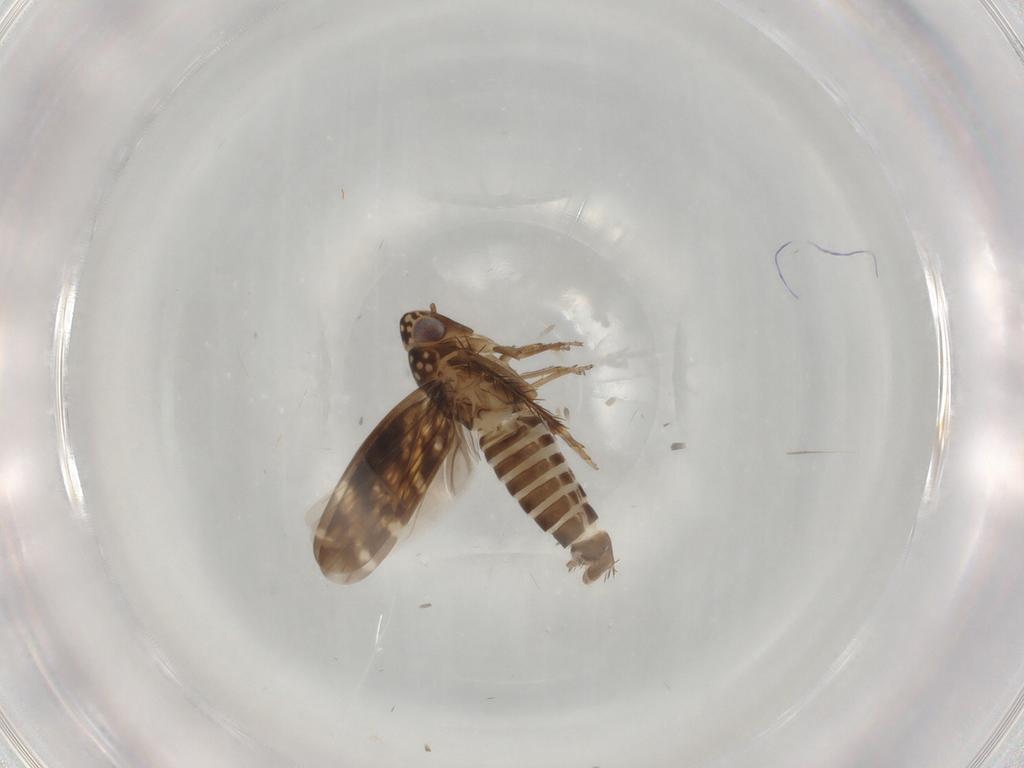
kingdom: Animalia
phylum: Arthropoda
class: Insecta
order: Hemiptera
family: Cicadellidae
